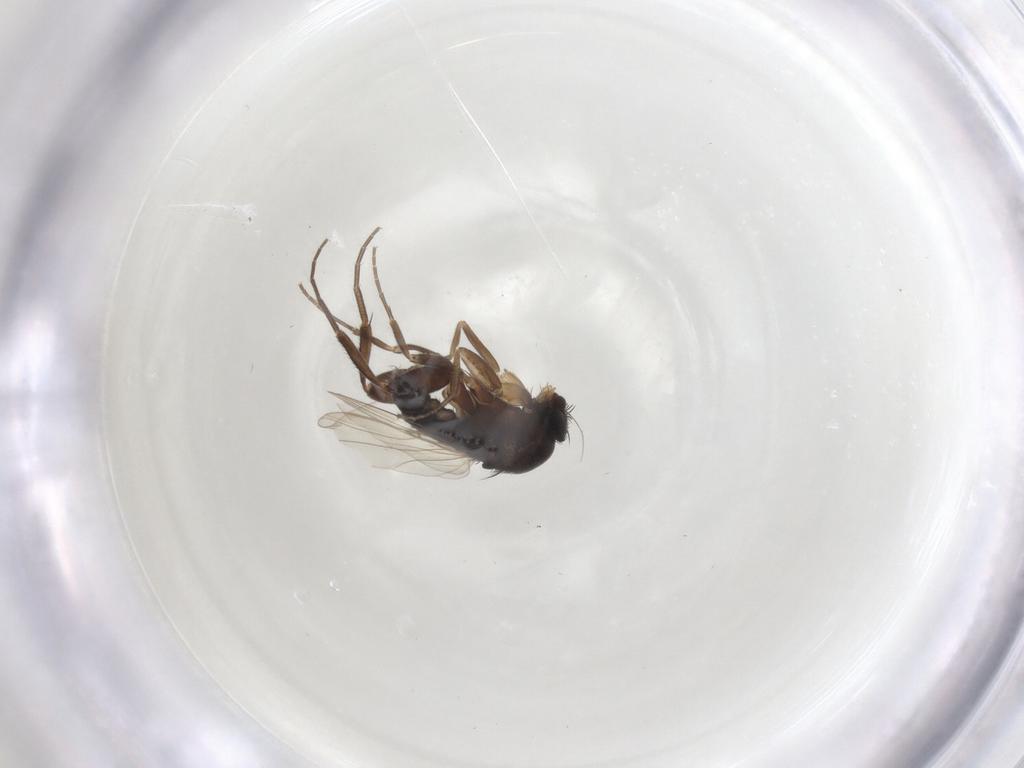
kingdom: Animalia
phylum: Arthropoda
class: Insecta
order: Diptera
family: Phoridae
